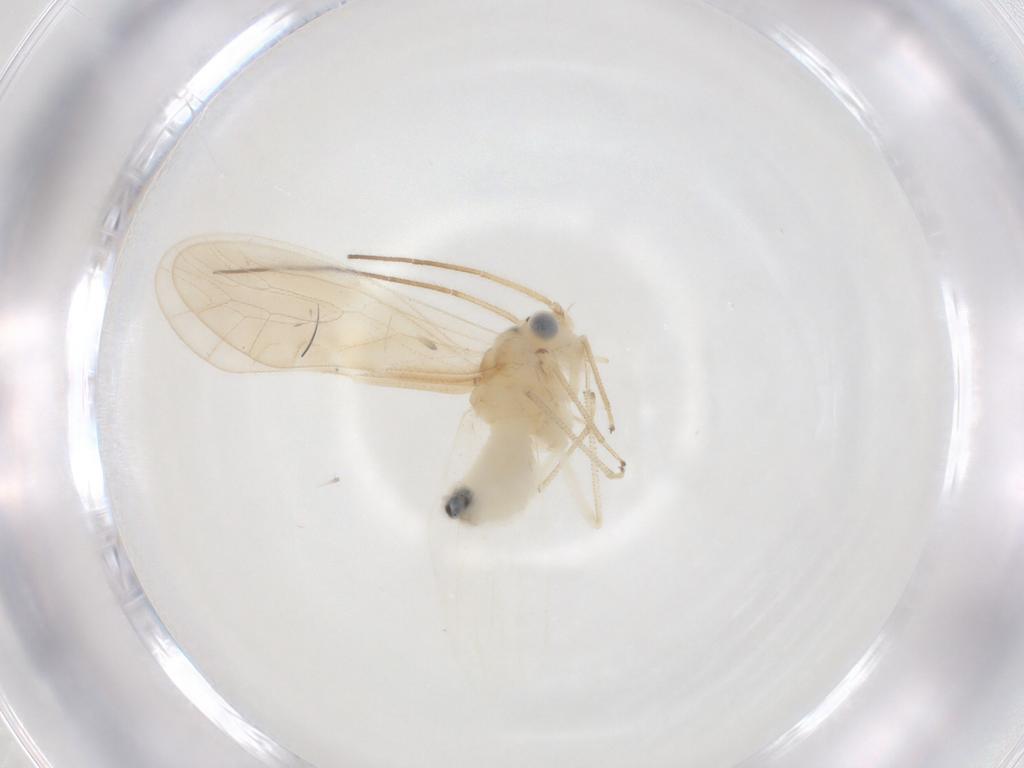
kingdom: Animalia
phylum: Arthropoda
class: Insecta
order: Psocodea
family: Caeciliusidae
